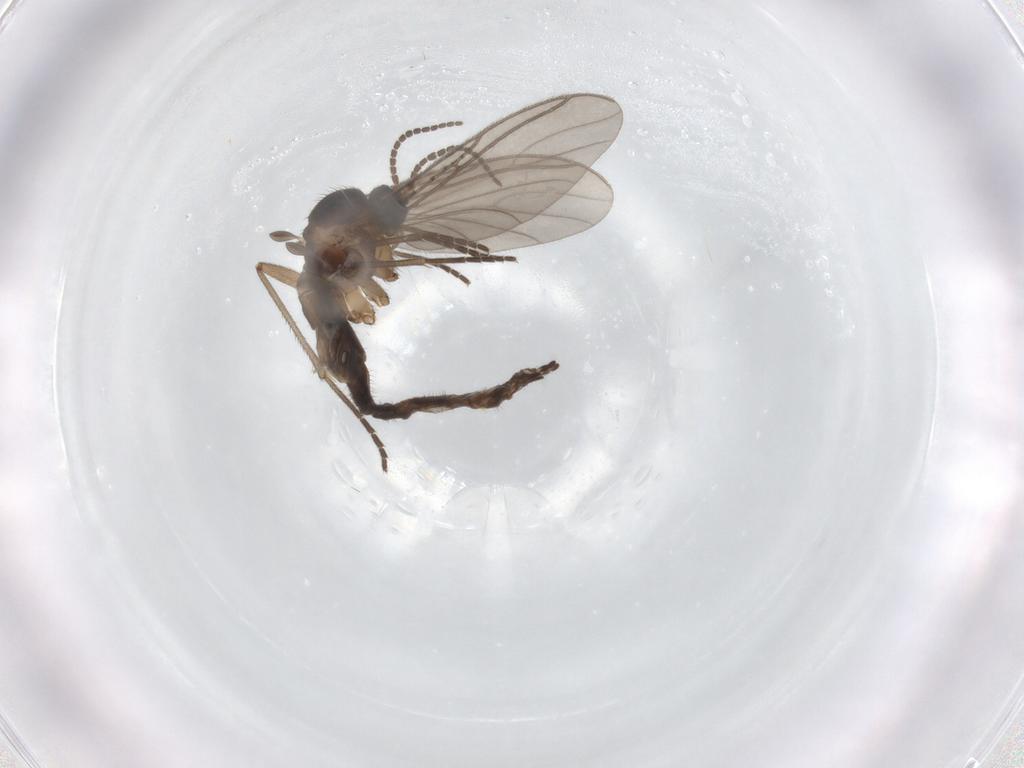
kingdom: Animalia
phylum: Arthropoda
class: Insecta
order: Diptera
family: Sciaridae
